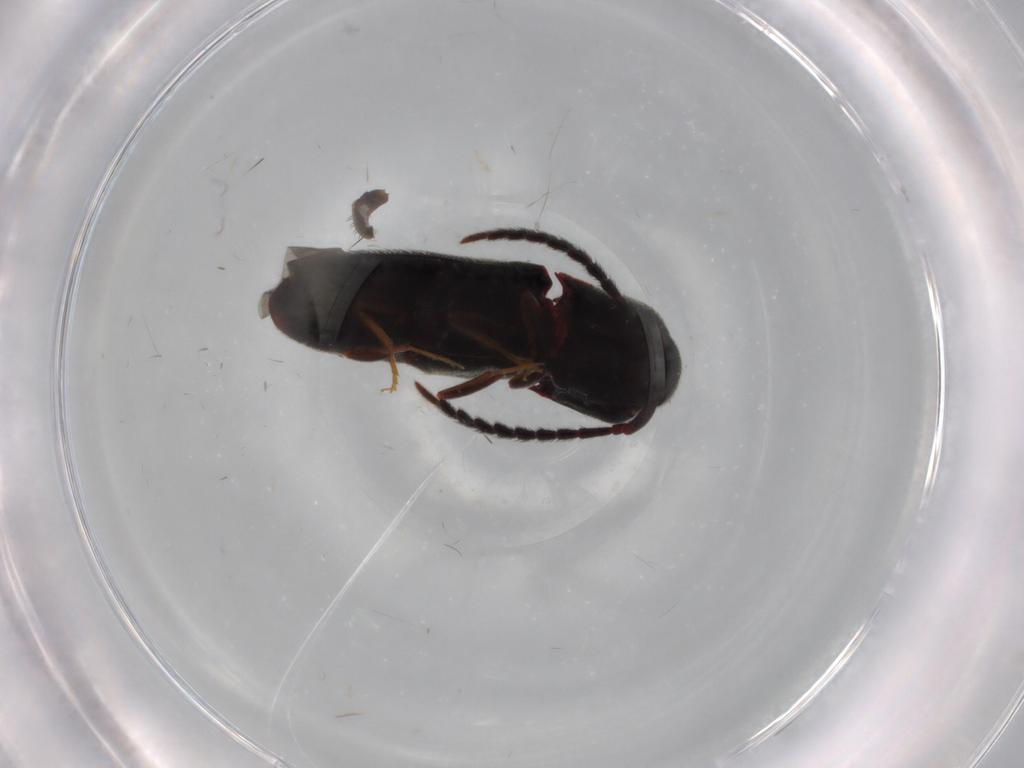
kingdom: Animalia
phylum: Arthropoda
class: Insecta
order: Coleoptera
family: Eucnemidae
